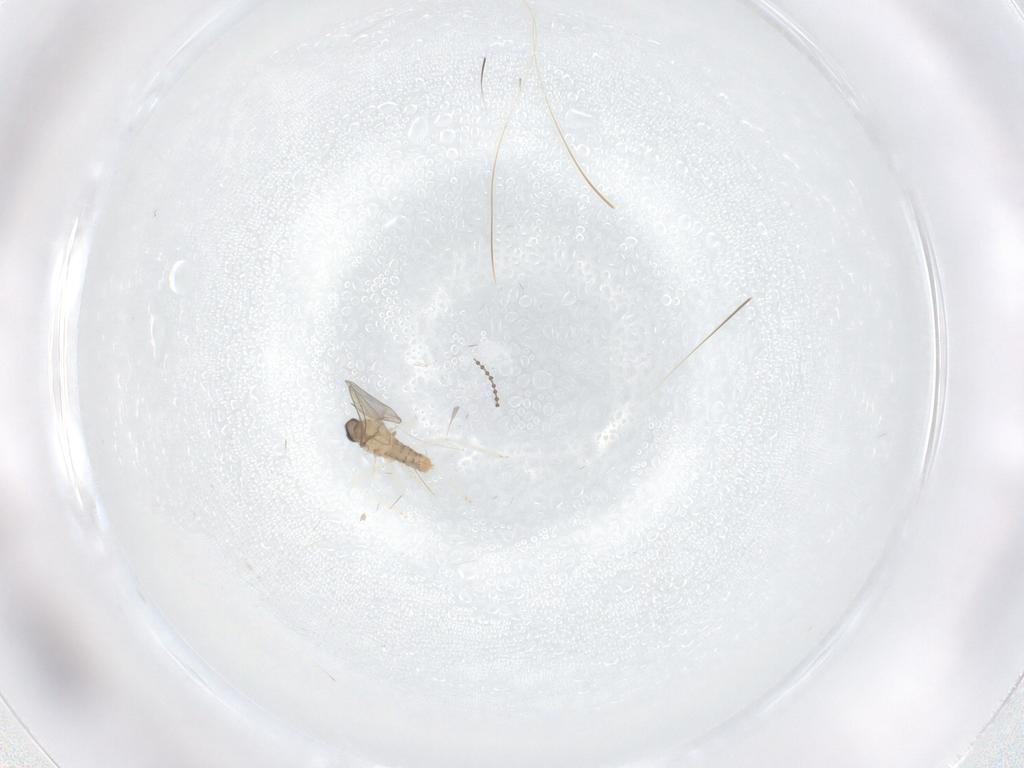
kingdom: Animalia
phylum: Arthropoda
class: Insecta
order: Diptera
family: Cecidomyiidae
